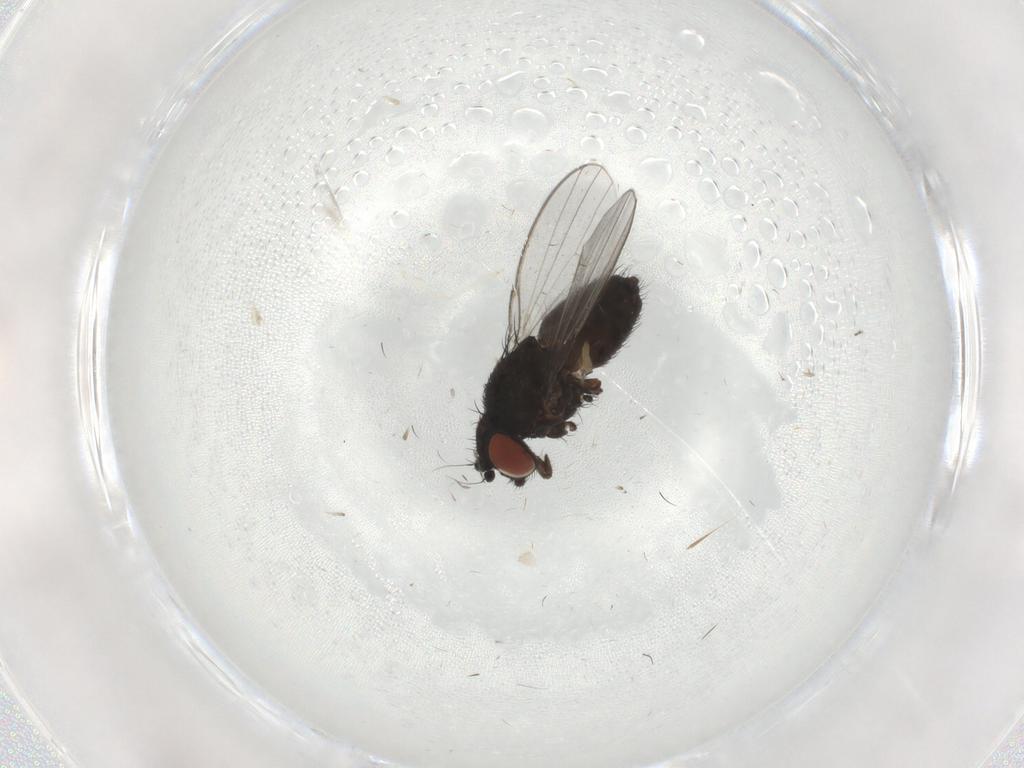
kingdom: Animalia
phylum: Arthropoda
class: Insecta
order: Diptera
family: Milichiidae
